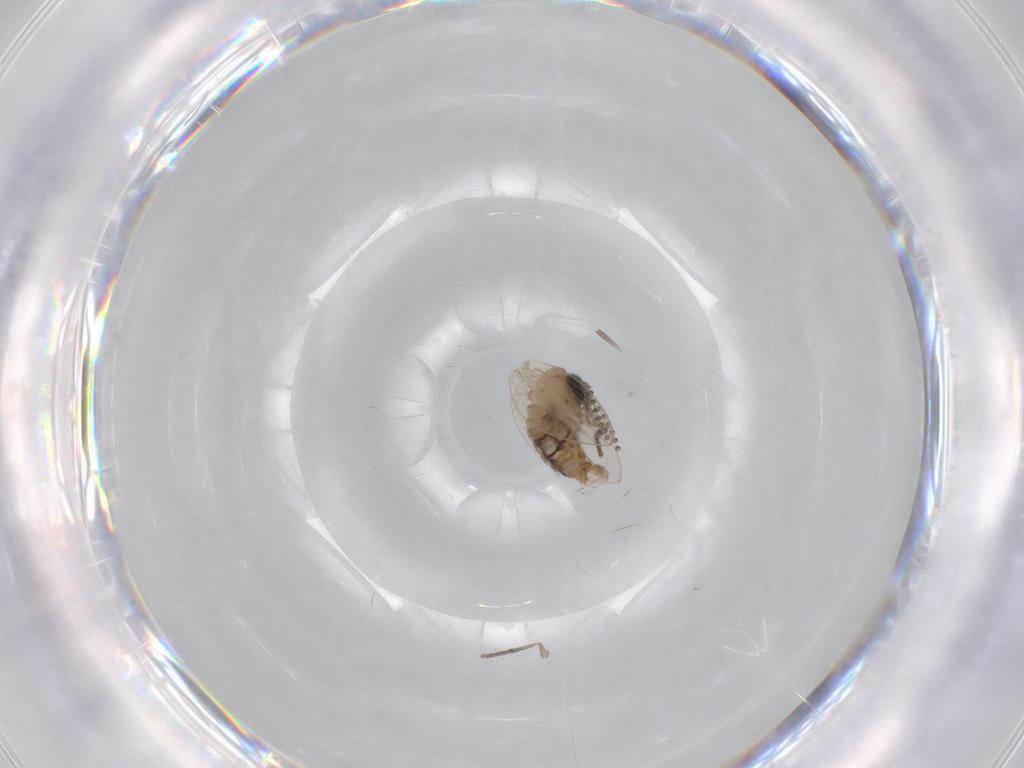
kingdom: Animalia
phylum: Arthropoda
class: Insecta
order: Diptera
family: Psychodidae
